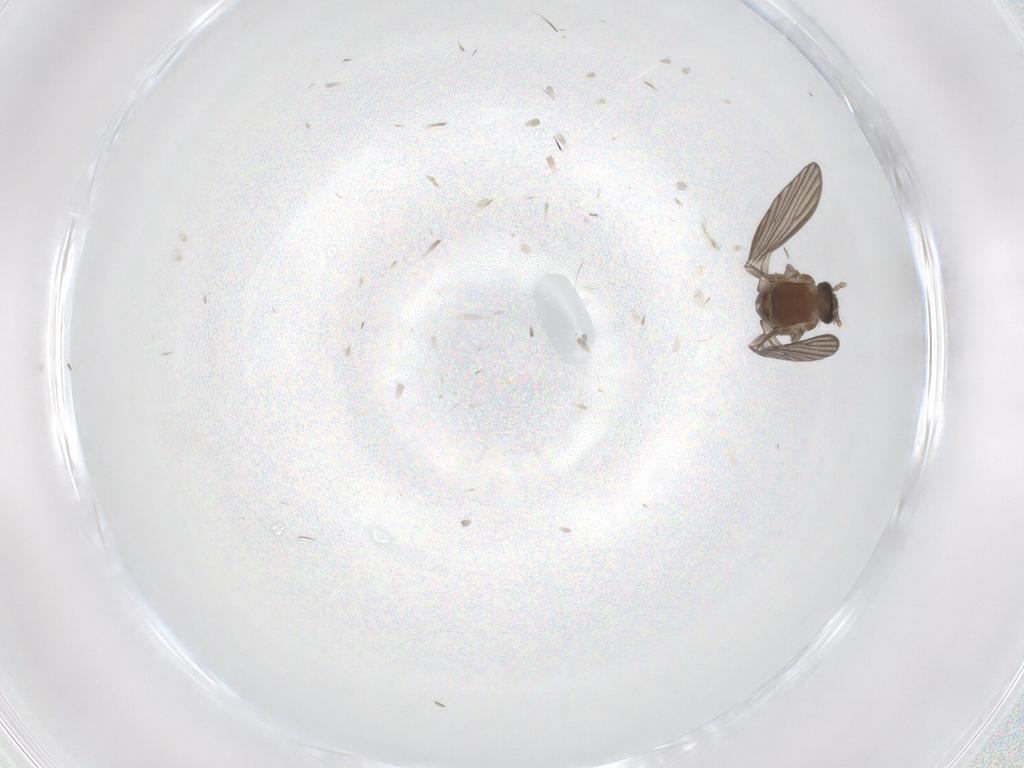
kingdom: Animalia
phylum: Arthropoda
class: Insecta
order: Diptera
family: Psychodidae
